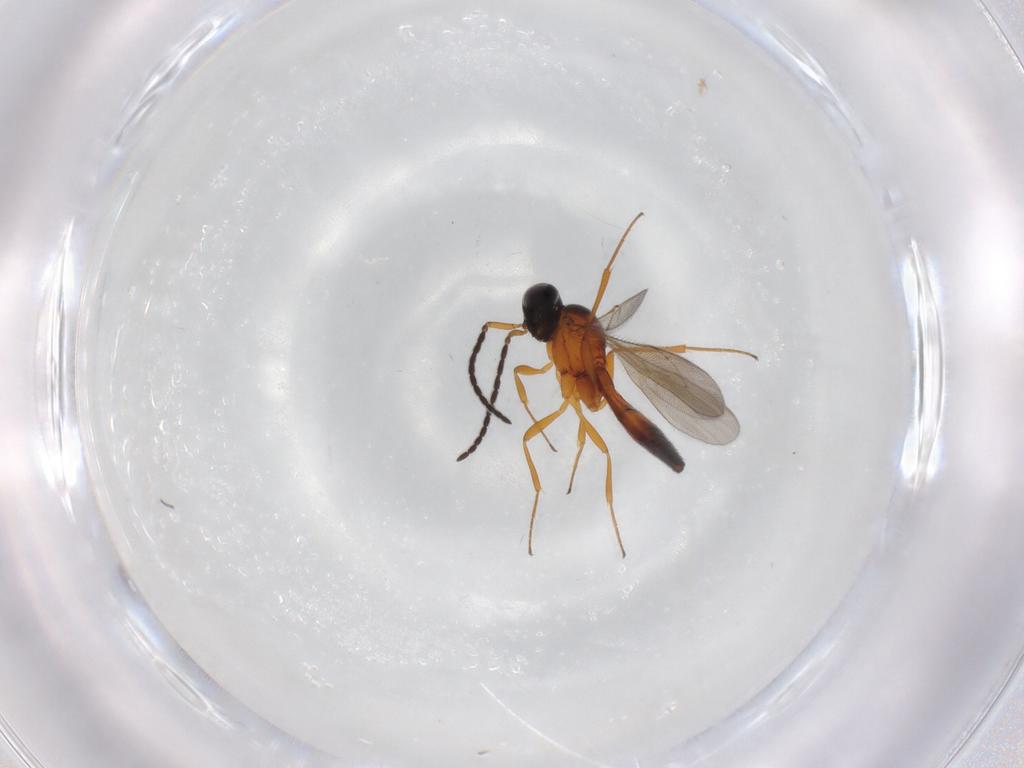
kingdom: Animalia
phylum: Arthropoda
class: Insecta
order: Hymenoptera
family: Scelionidae
